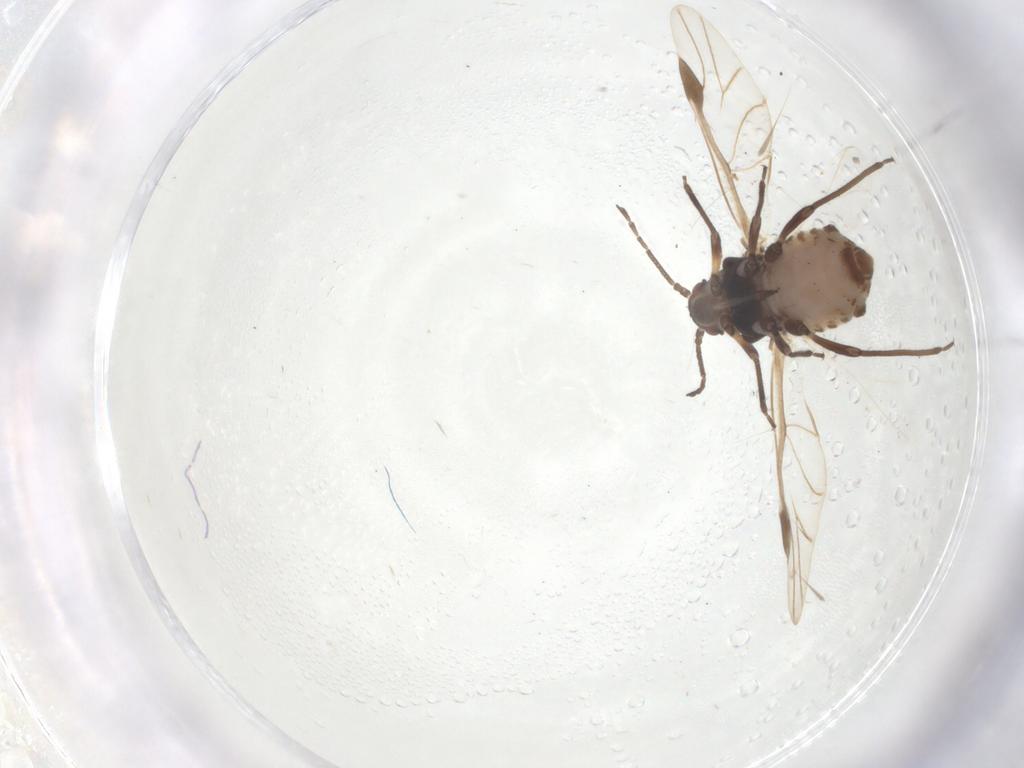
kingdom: Animalia
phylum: Arthropoda
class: Insecta
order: Hemiptera
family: Aphididae
